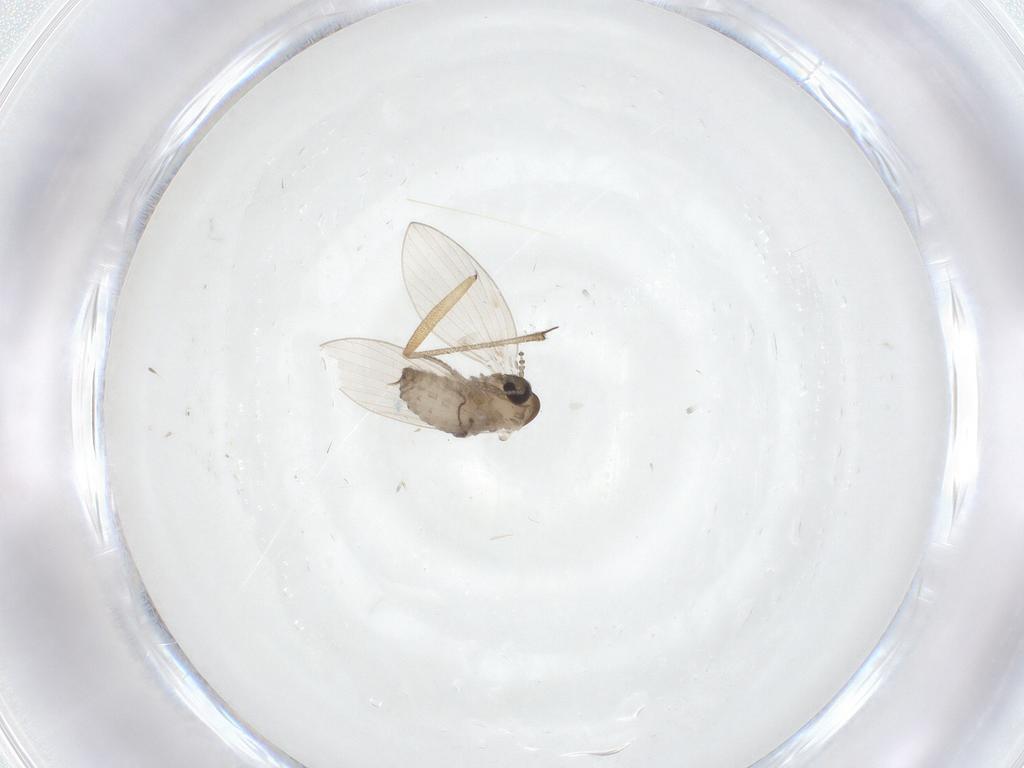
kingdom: Animalia
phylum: Arthropoda
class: Insecta
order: Diptera
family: Psychodidae
